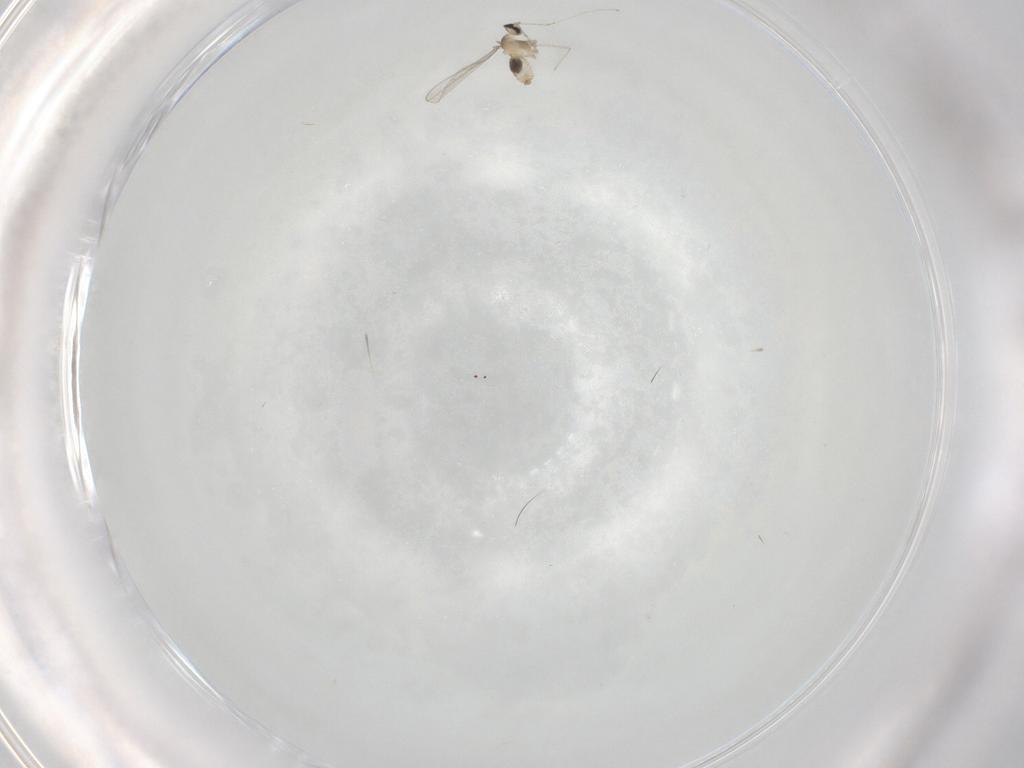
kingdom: Animalia
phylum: Arthropoda
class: Insecta
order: Diptera
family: Cecidomyiidae
